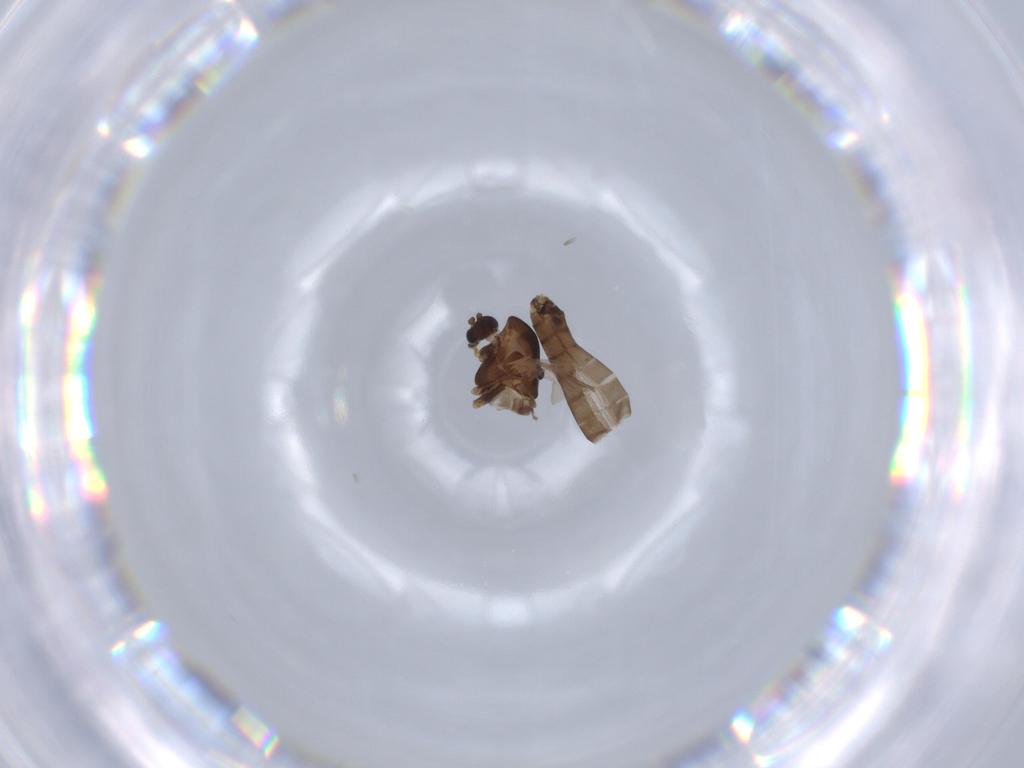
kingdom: Animalia
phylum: Arthropoda
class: Insecta
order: Diptera
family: Chironomidae
